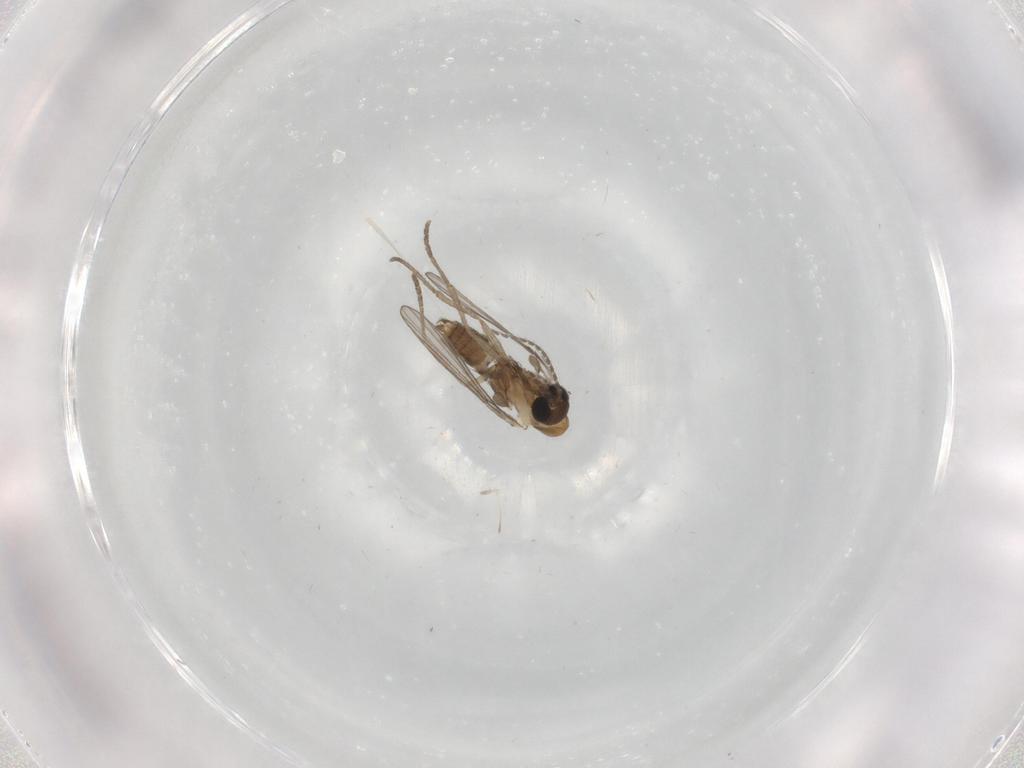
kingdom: Animalia
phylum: Arthropoda
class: Insecta
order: Diptera
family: Psychodidae
